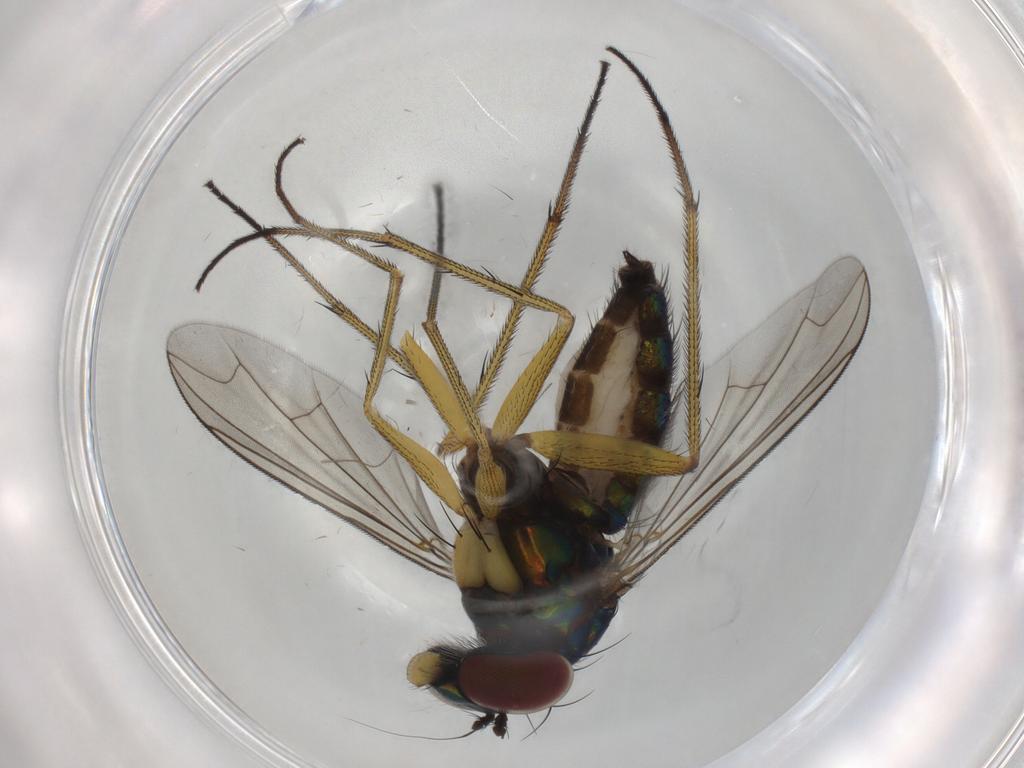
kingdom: Animalia
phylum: Arthropoda
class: Insecta
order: Diptera
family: Dolichopodidae
